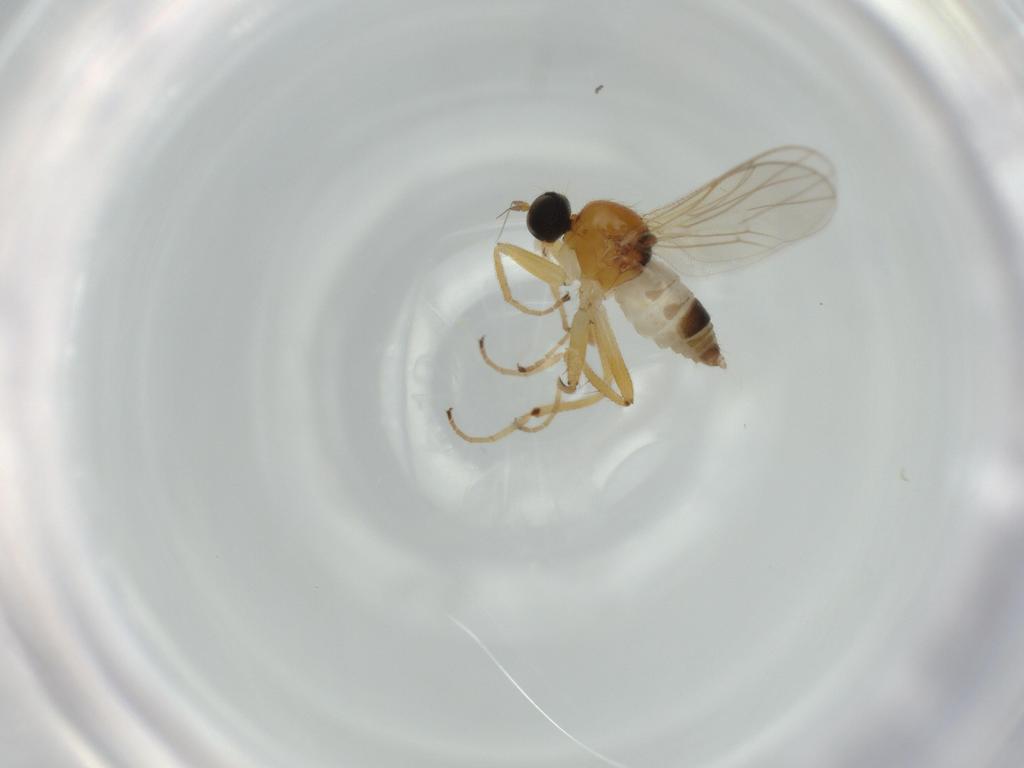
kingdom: Animalia
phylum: Arthropoda
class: Insecta
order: Diptera
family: Hybotidae
